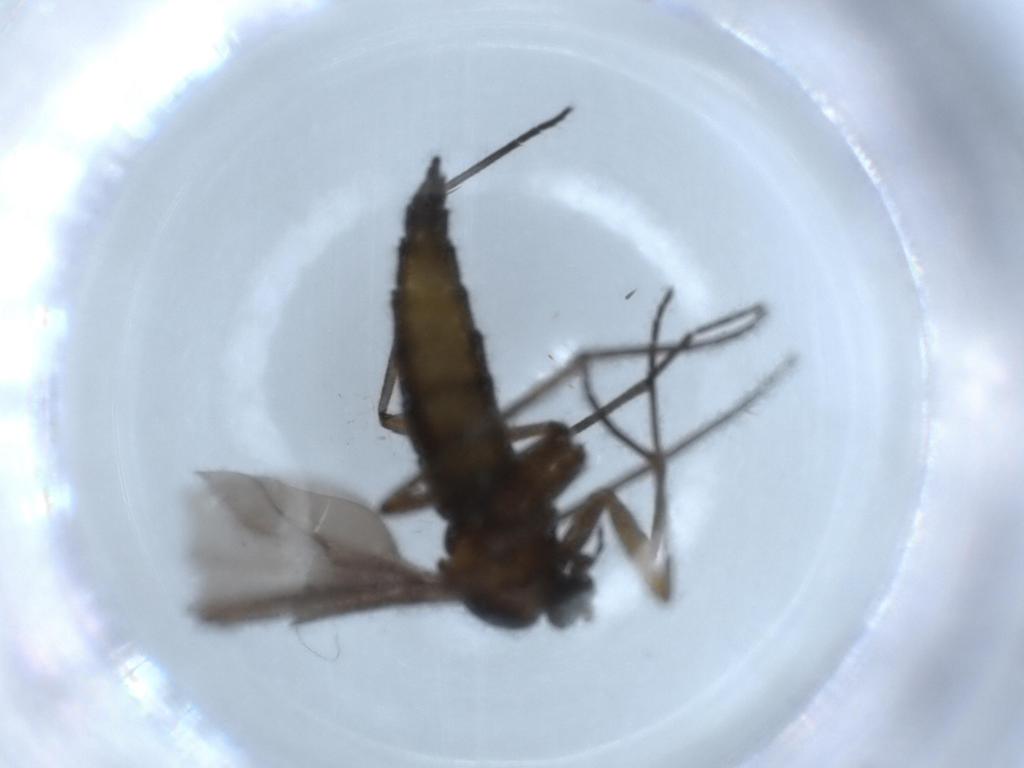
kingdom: Animalia
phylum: Arthropoda
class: Insecta
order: Diptera
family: Sciaridae
